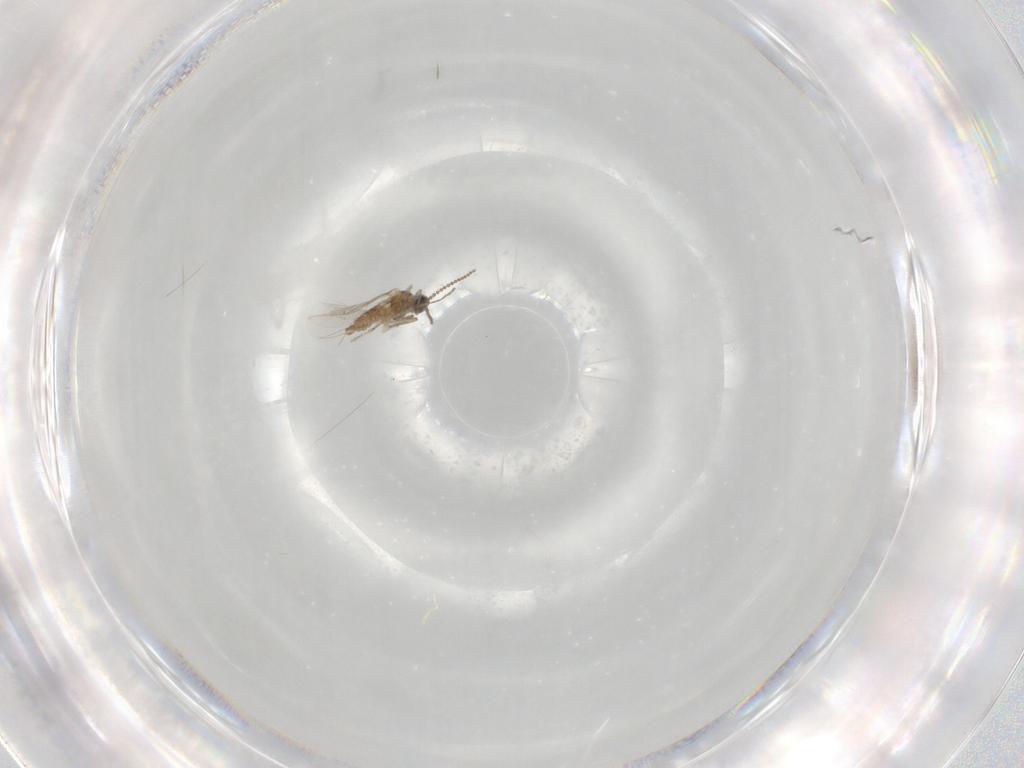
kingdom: Animalia
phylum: Arthropoda
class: Insecta
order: Diptera
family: Cecidomyiidae
